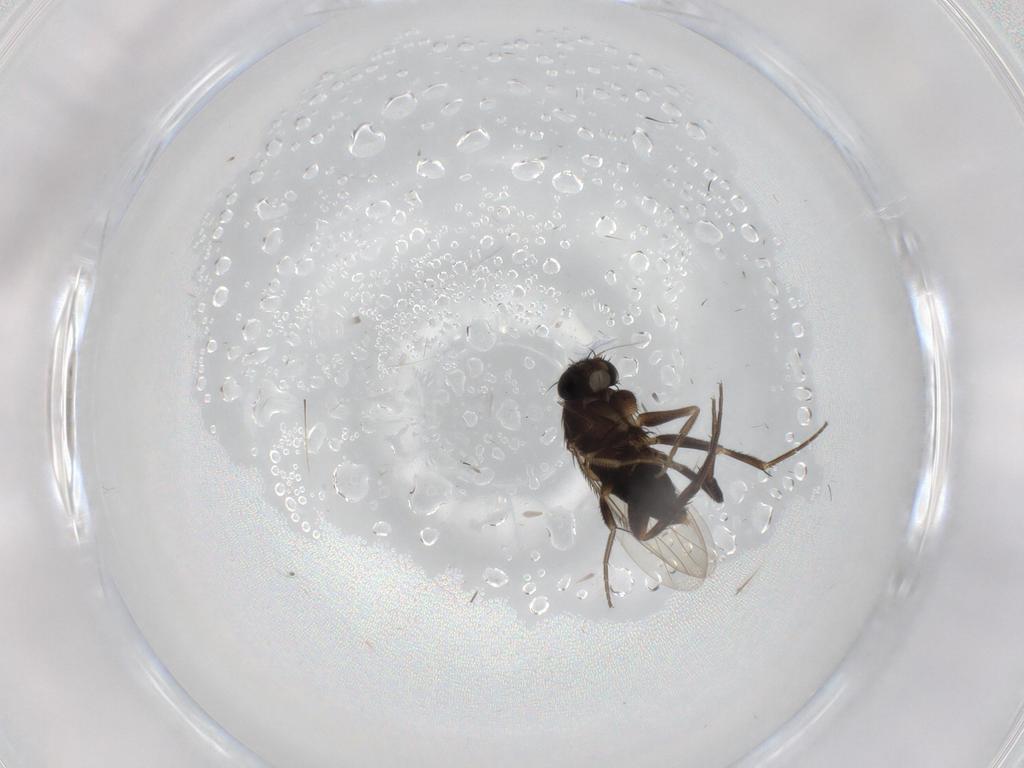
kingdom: Animalia
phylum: Arthropoda
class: Insecta
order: Diptera
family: Phoridae
